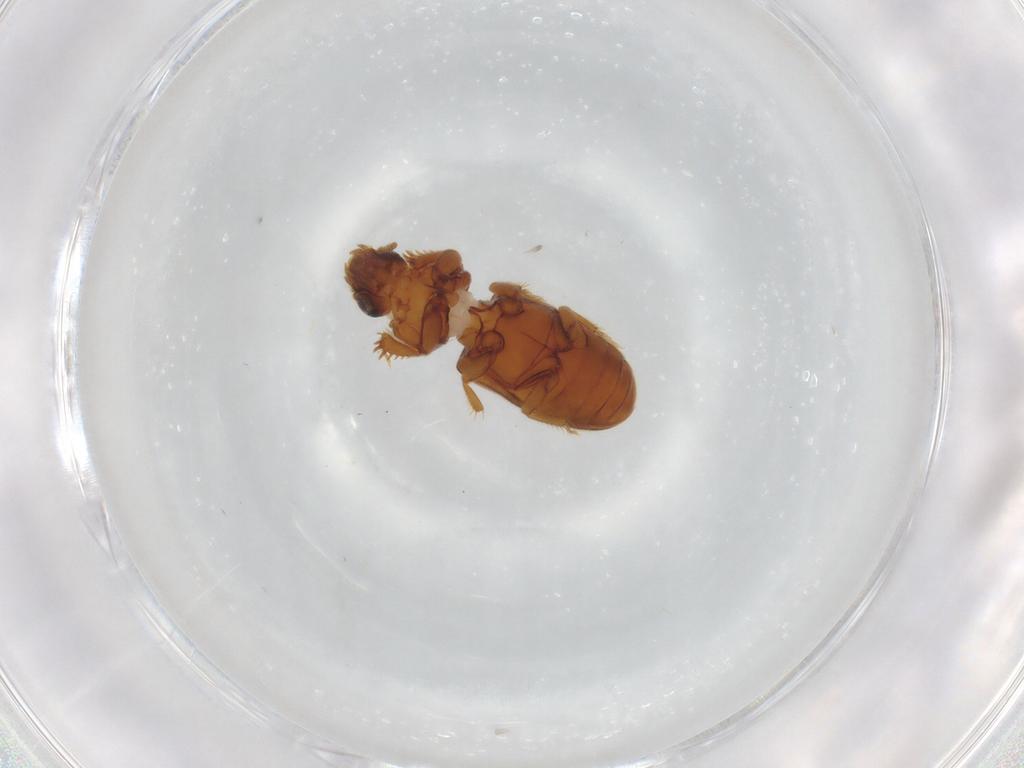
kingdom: Animalia
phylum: Arthropoda
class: Insecta
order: Coleoptera
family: Heteroceridae
